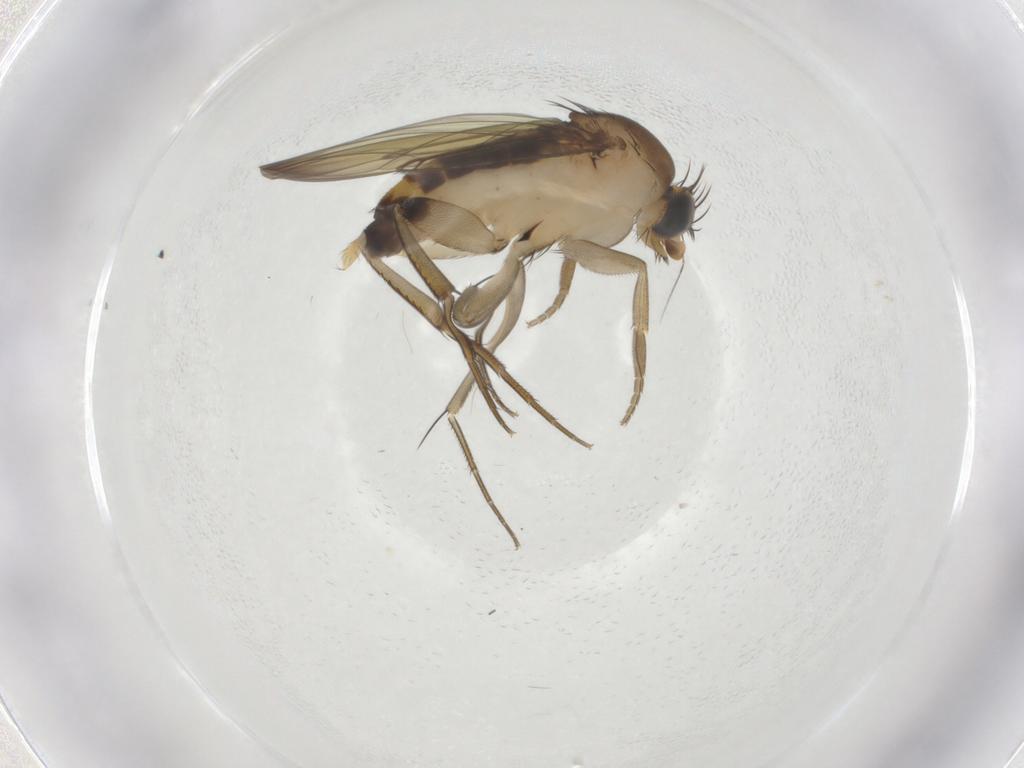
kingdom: Animalia
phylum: Arthropoda
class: Insecta
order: Diptera
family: Phoridae
